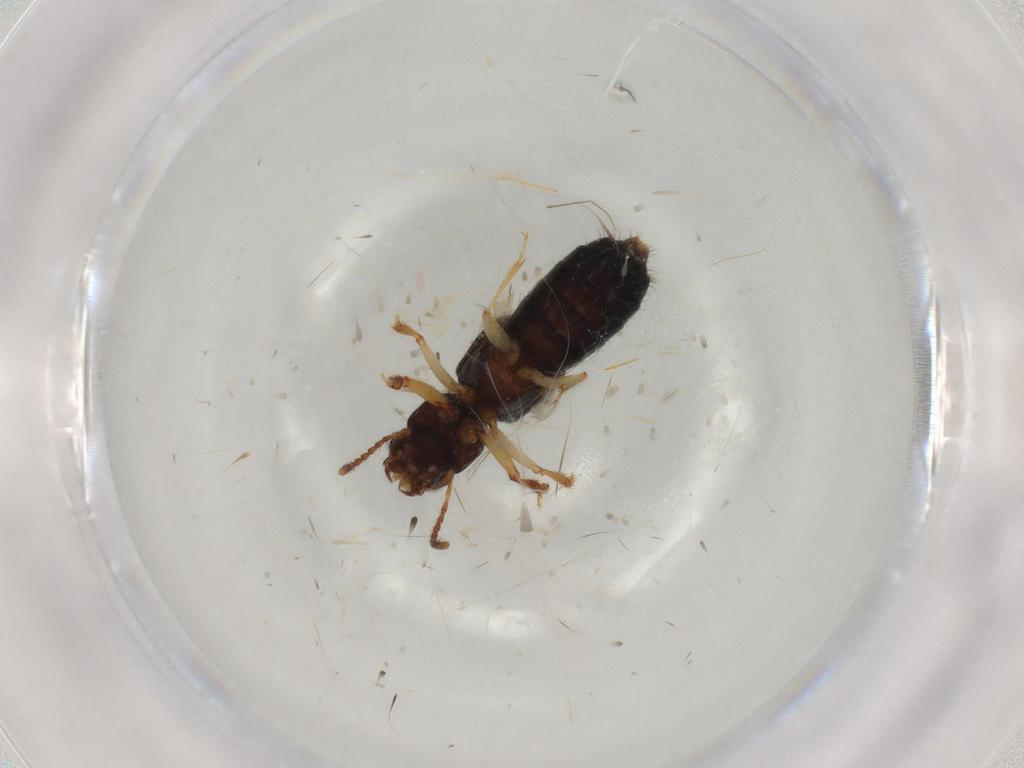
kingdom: Animalia
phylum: Arthropoda
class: Insecta
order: Coleoptera
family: Staphylinidae
